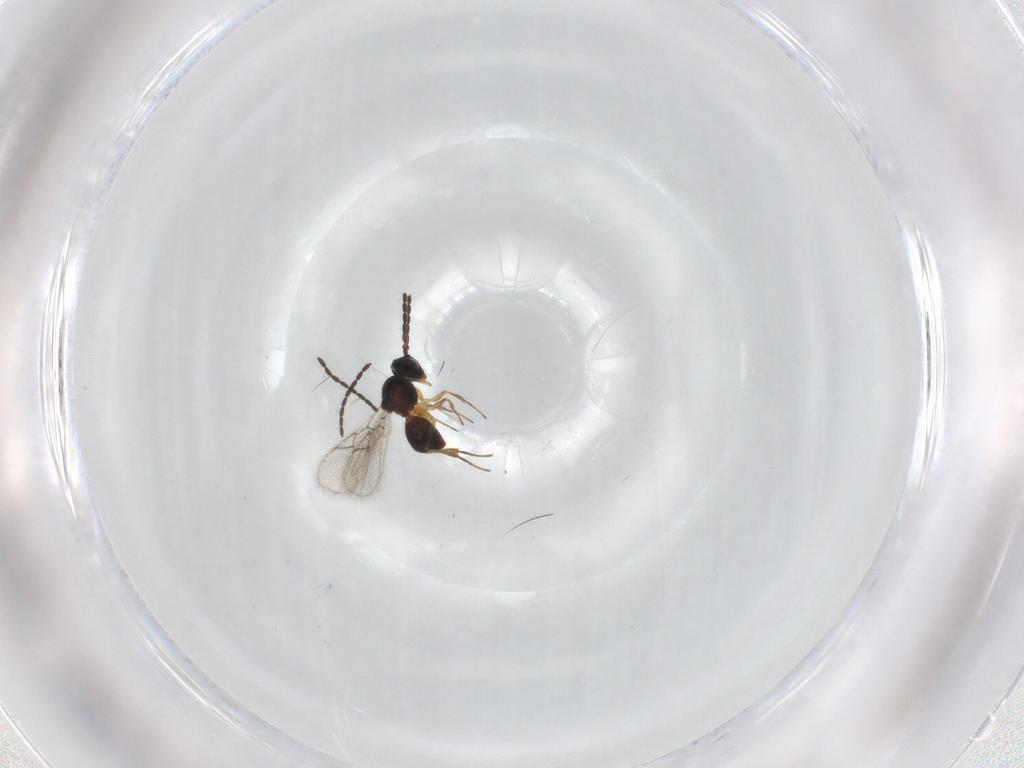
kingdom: Animalia
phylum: Arthropoda
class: Insecta
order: Hymenoptera
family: Figitidae
